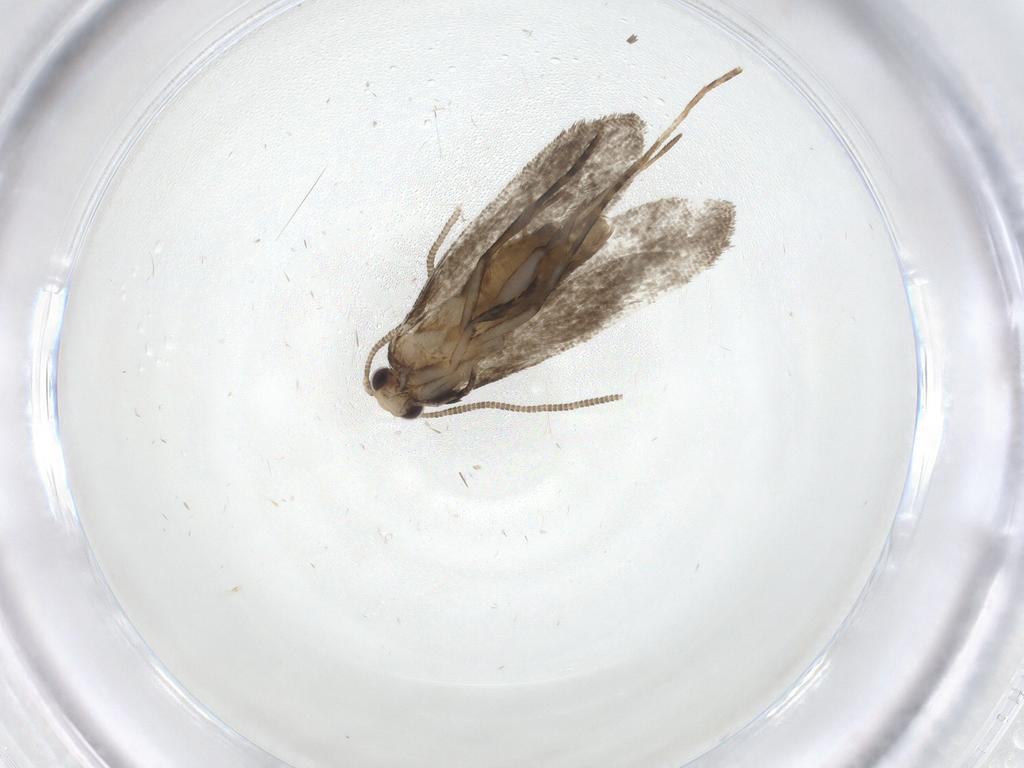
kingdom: Animalia
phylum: Arthropoda
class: Insecta
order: Lepidoptera
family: Tineidae
